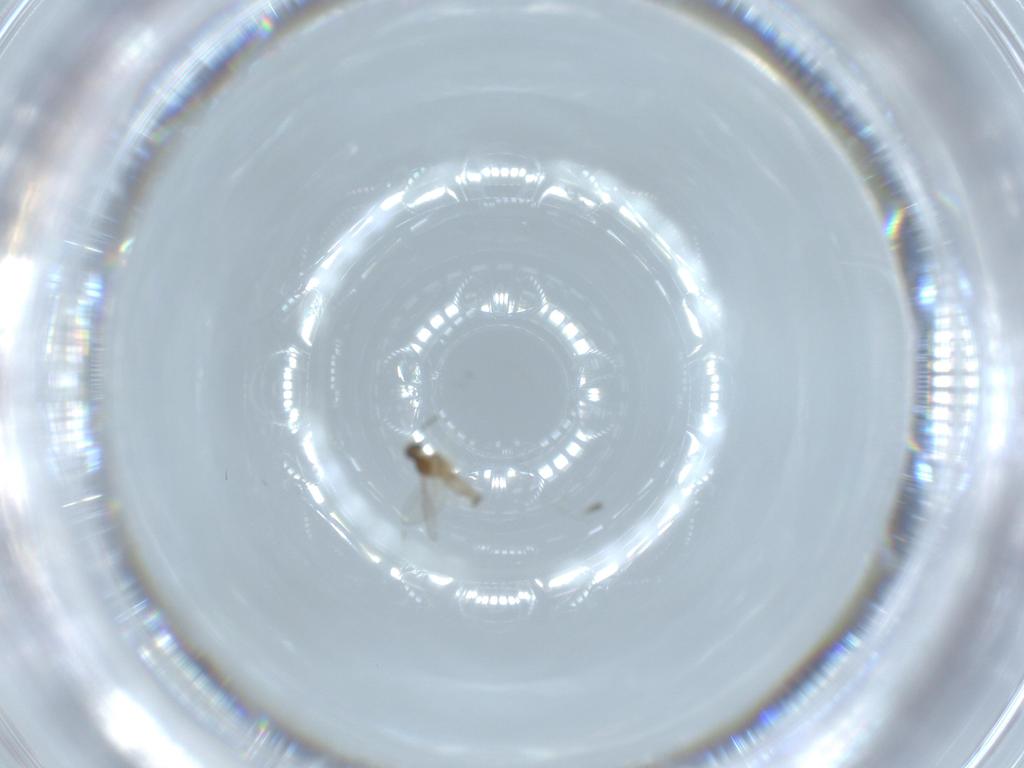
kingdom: Animalia
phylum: Arthropoda
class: Insecta
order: Diptera
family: Cecidomyiidae
